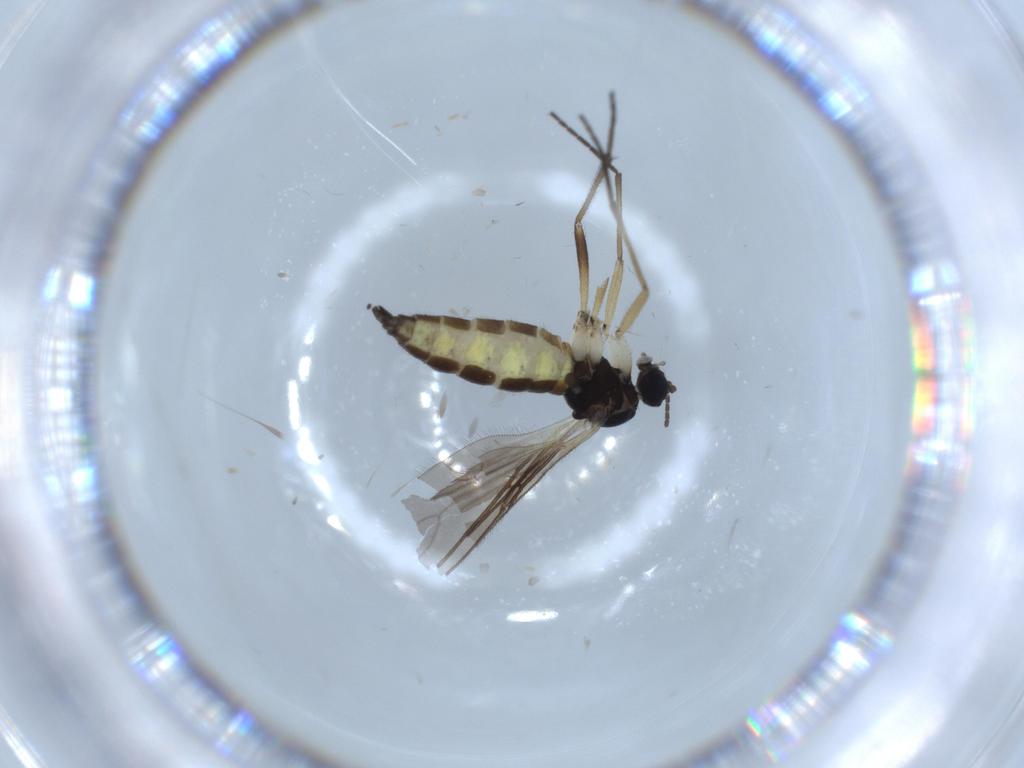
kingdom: Animalia
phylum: Arthropoda
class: Insecta
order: Diptera
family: Sciaridae
